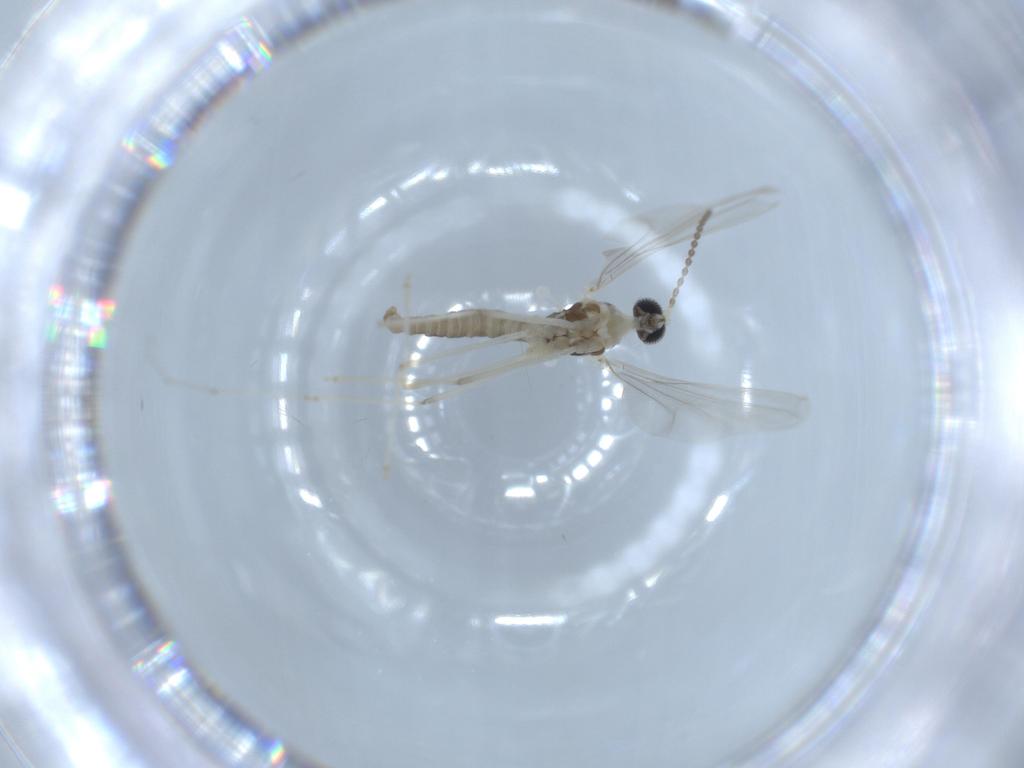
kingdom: Animalia
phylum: Arthropoda
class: Insecta
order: Diptera
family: Cecidomyiidae
